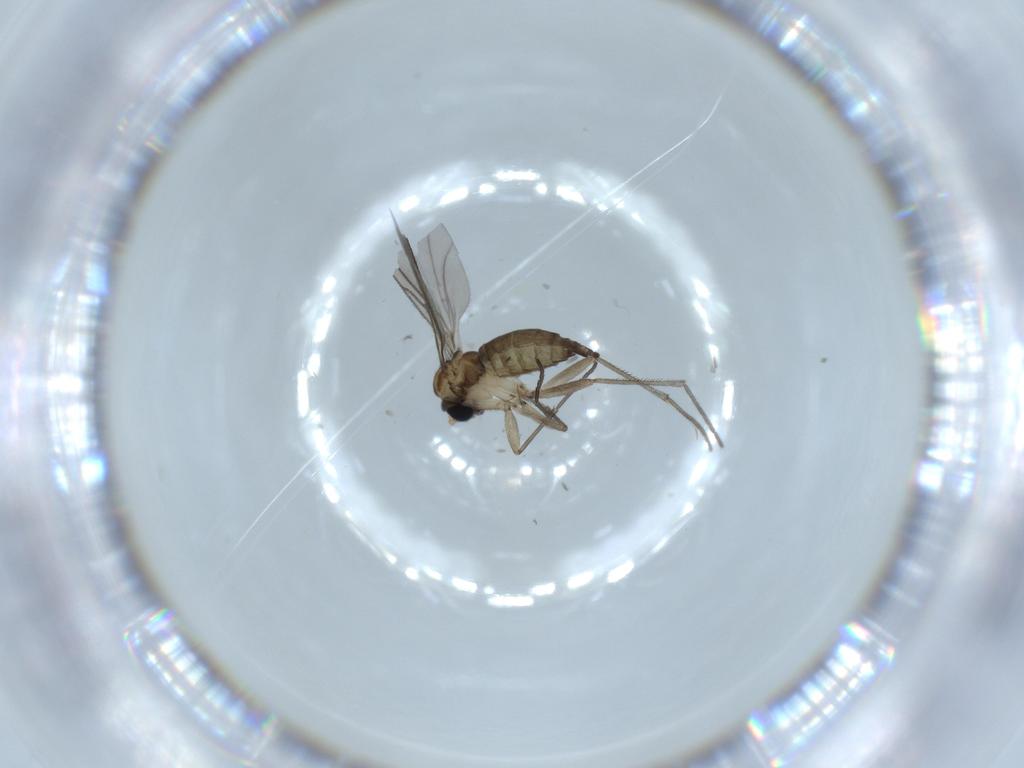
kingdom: Animalia
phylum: Arthropoda
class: Insecta
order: Diptera
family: Sciaridae
